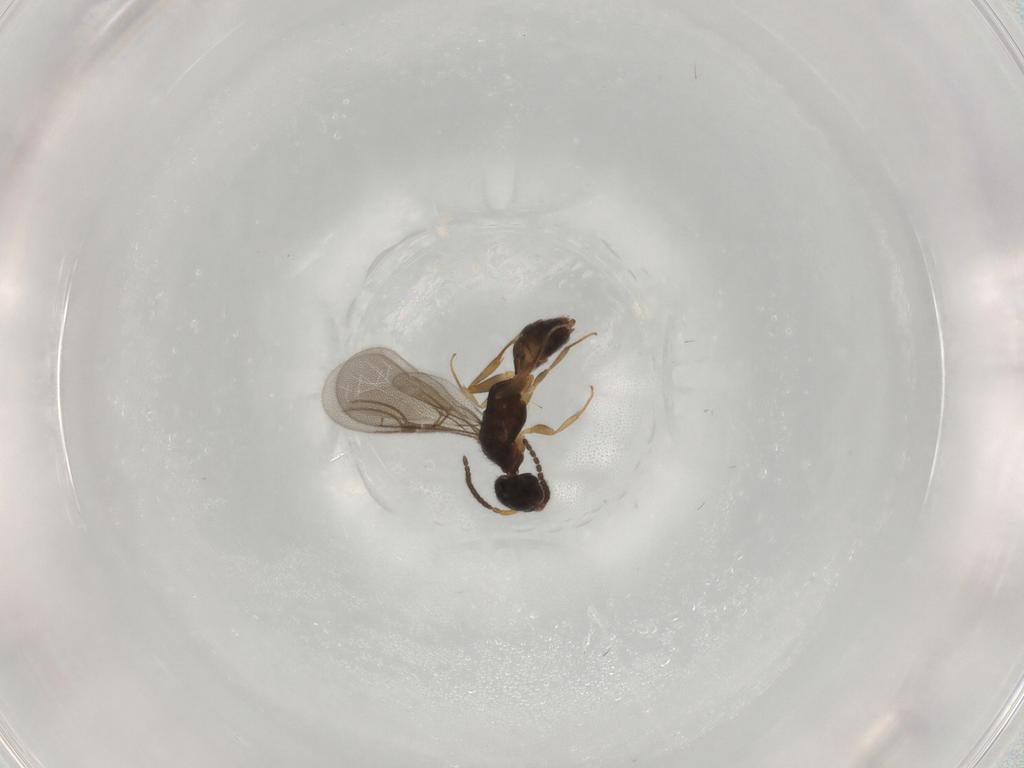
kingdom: Animalia
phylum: Arthropoda
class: Insecta
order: Hymenoptera
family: Bethylidae
